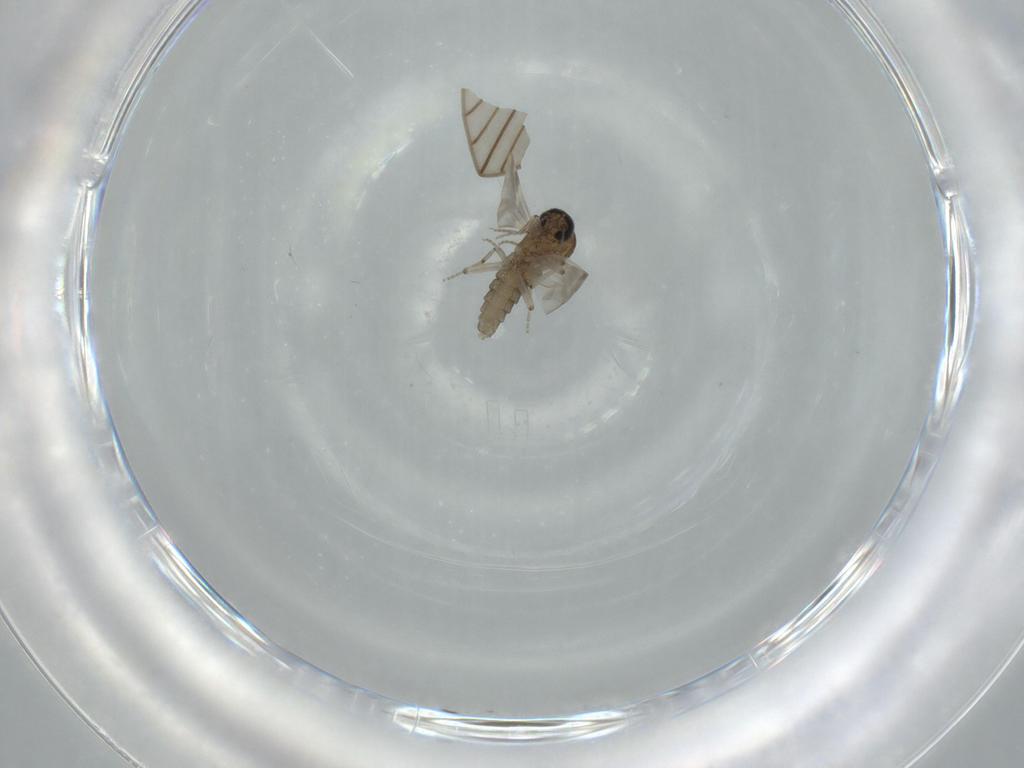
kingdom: Animalia
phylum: Arthropoda
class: Insecta
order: Diptera
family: Ceratopogonidae
